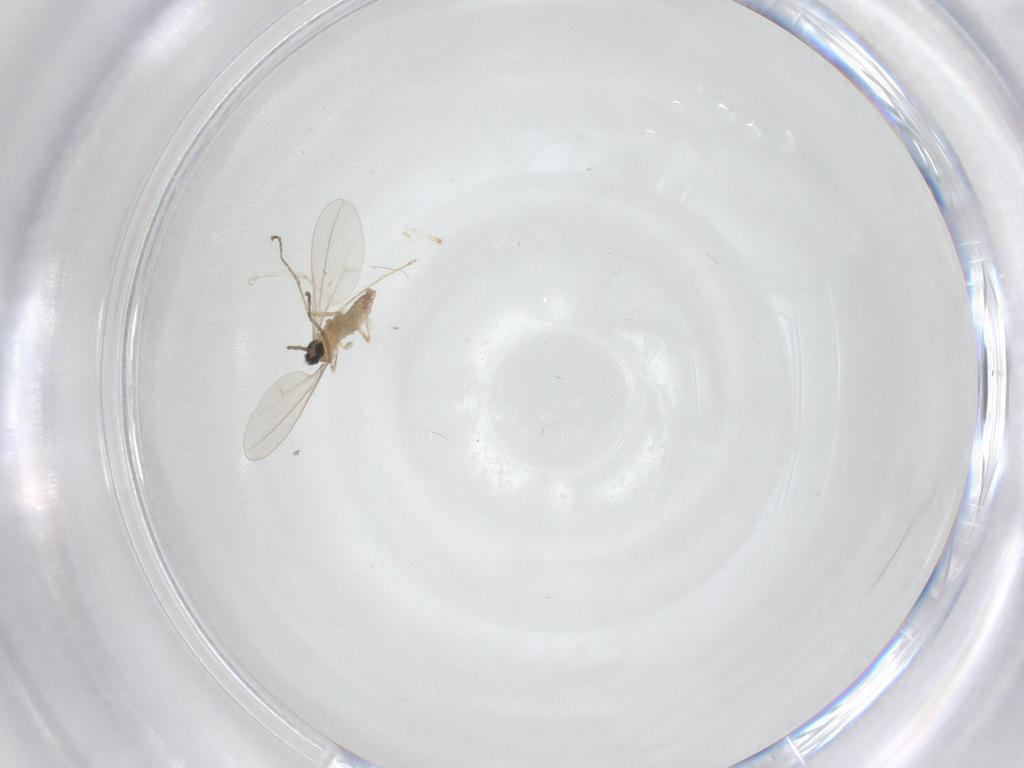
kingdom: Animalia
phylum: Arthropoda
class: Insecta
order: Diptera
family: Cecidomyiidae
